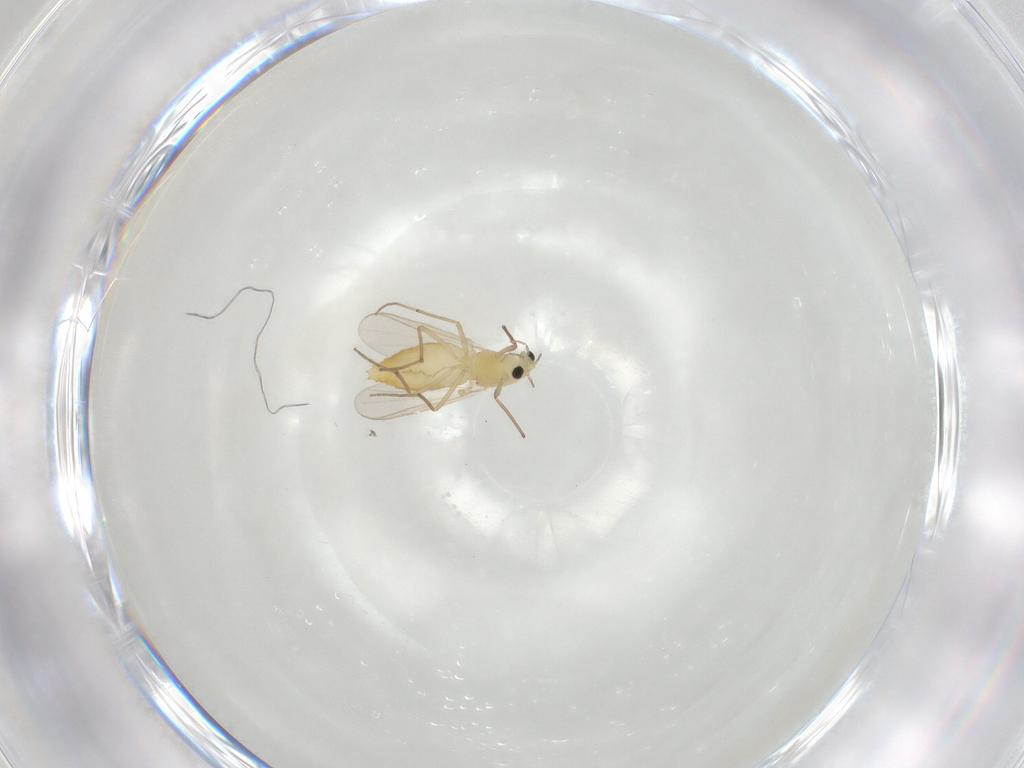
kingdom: Animalia
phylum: Arthropoda
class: Insecta
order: Diptera
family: Chironomidae
